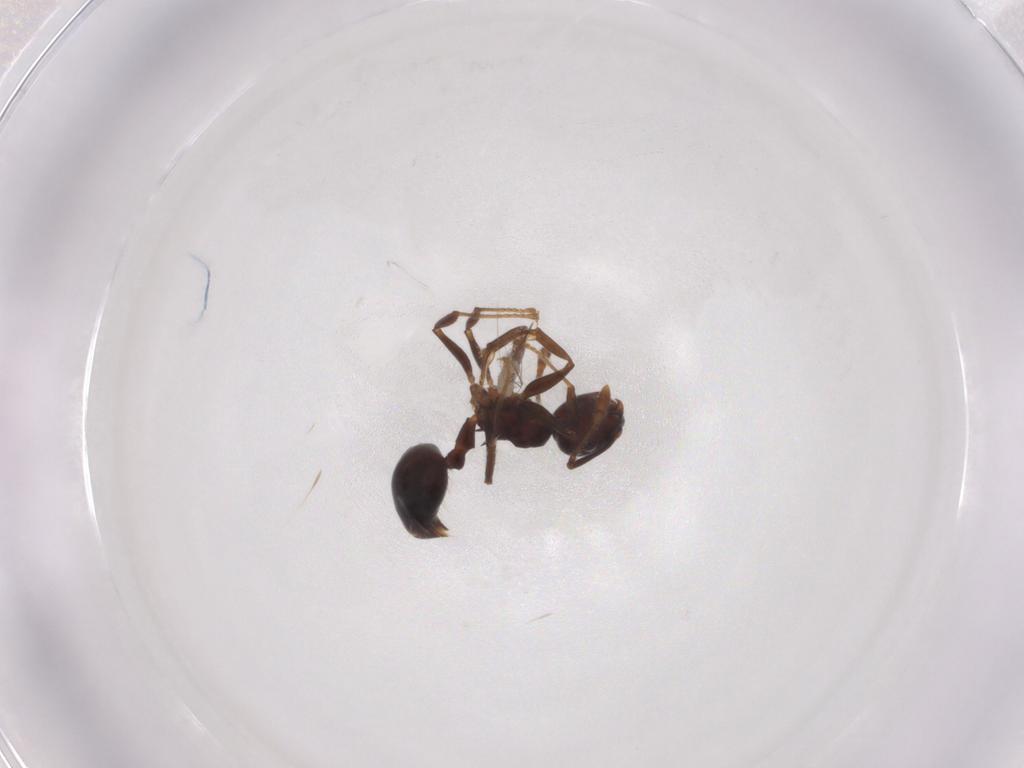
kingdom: Animalia
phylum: Arthropoda
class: Insecta
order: Hymenoptera
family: Formicidae
